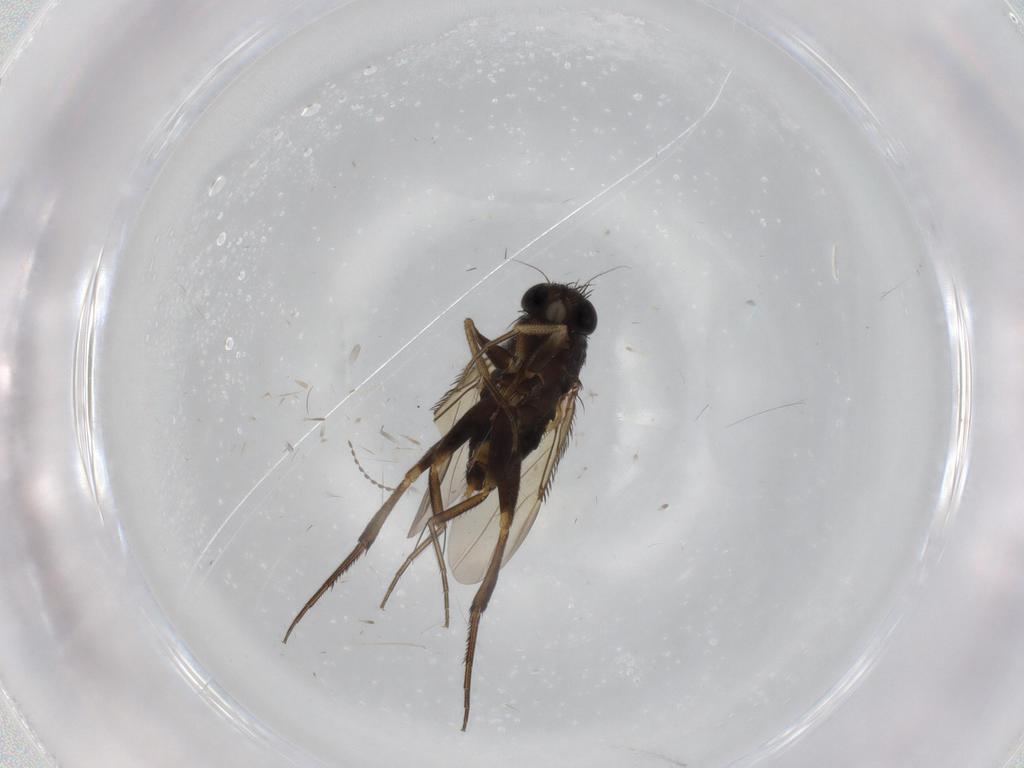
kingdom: Animalia
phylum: Arthropoda
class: Insecta
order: Diptera
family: Phoridae
